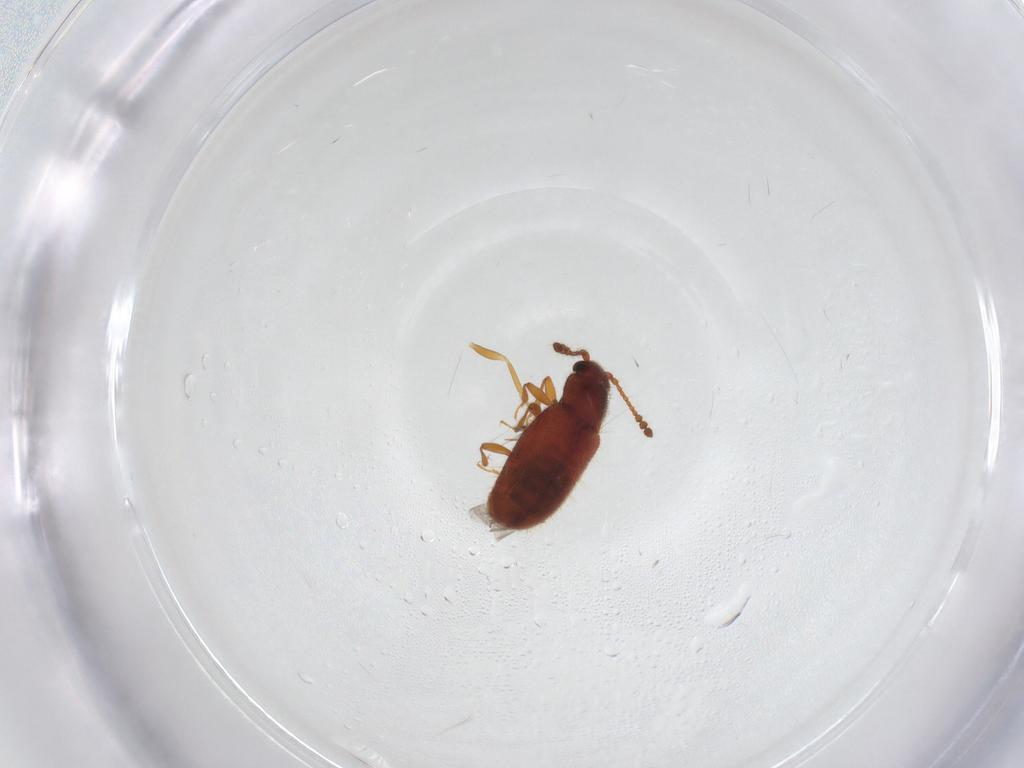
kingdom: Animalia
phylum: Arthropoda
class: Insecta
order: Coleoptera
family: Cryptophagidae
